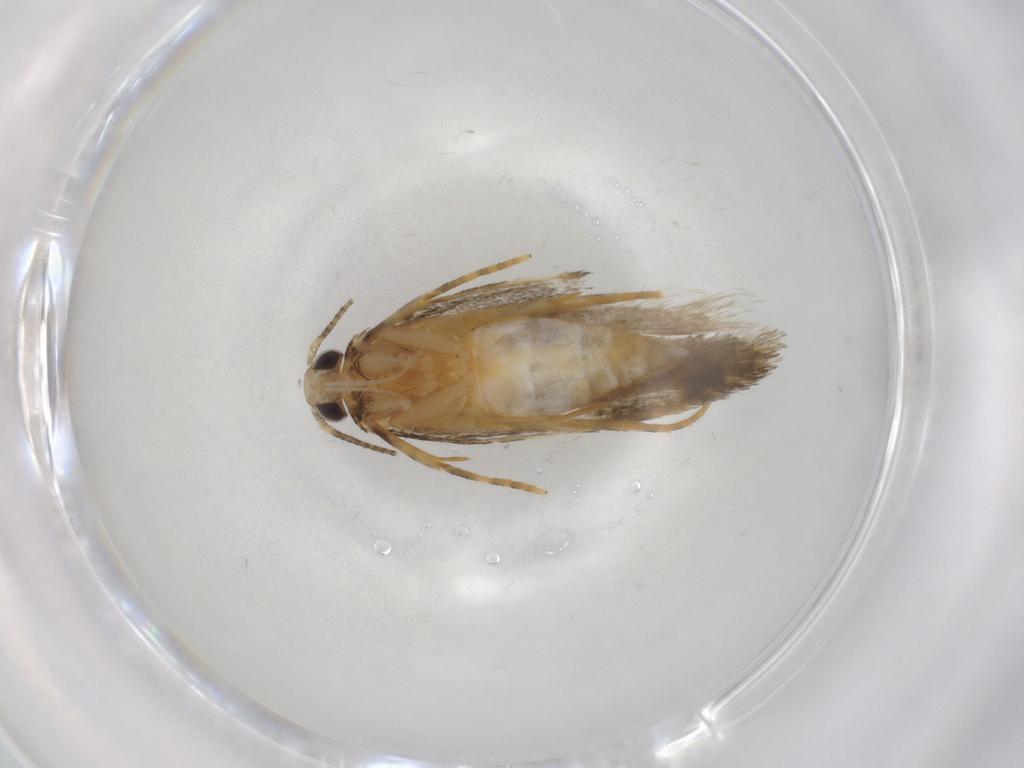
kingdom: Animalia
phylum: Arthropoda
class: Insecta
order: Lepidoptera
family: Autostichidae
